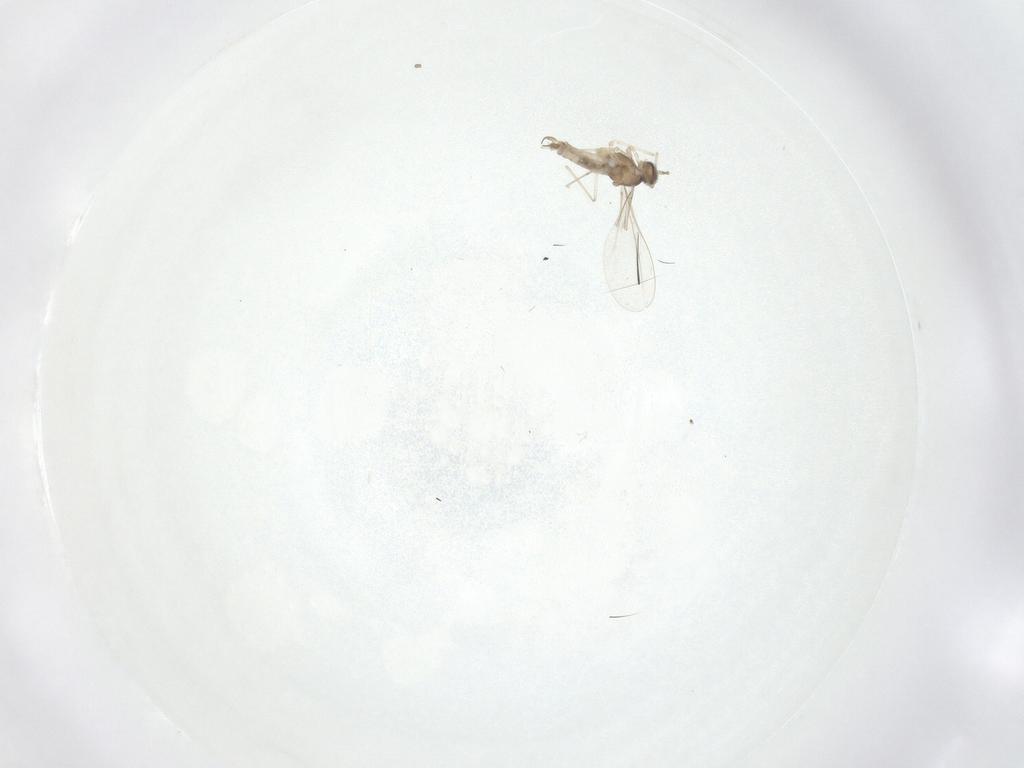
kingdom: Animalia
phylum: Arthropoda
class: Insecta
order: Diptera
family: Cecidomyiidae
